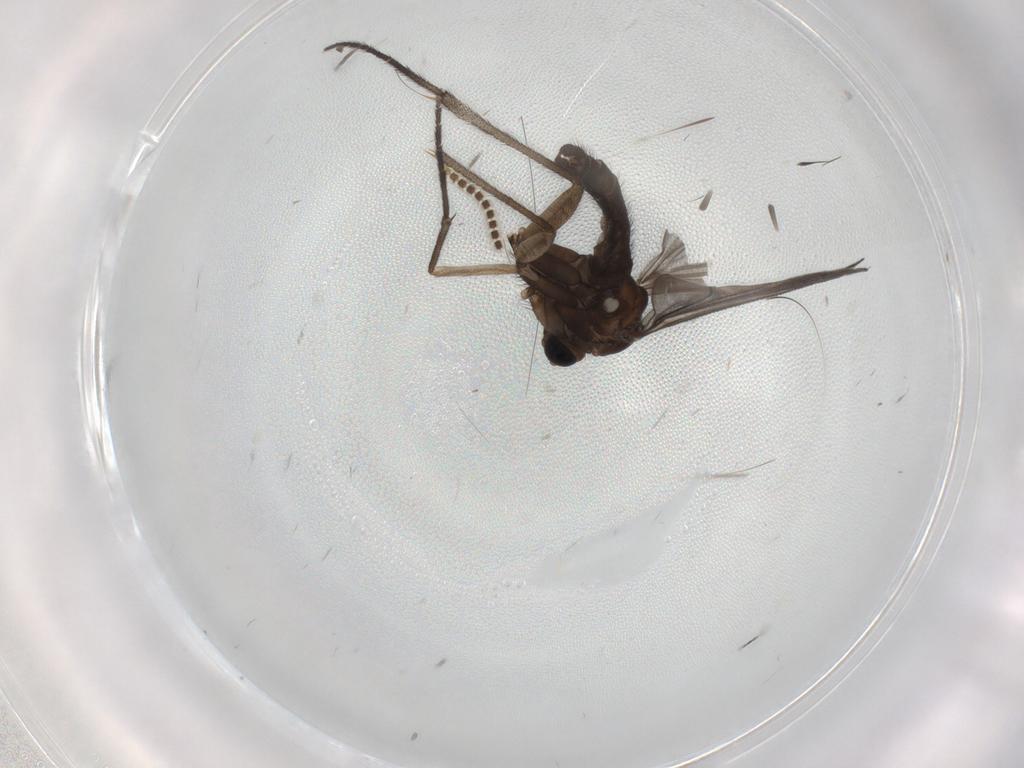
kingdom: Animalia
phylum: Arthropoda
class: Insecta
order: Diptera
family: Sciaridae
